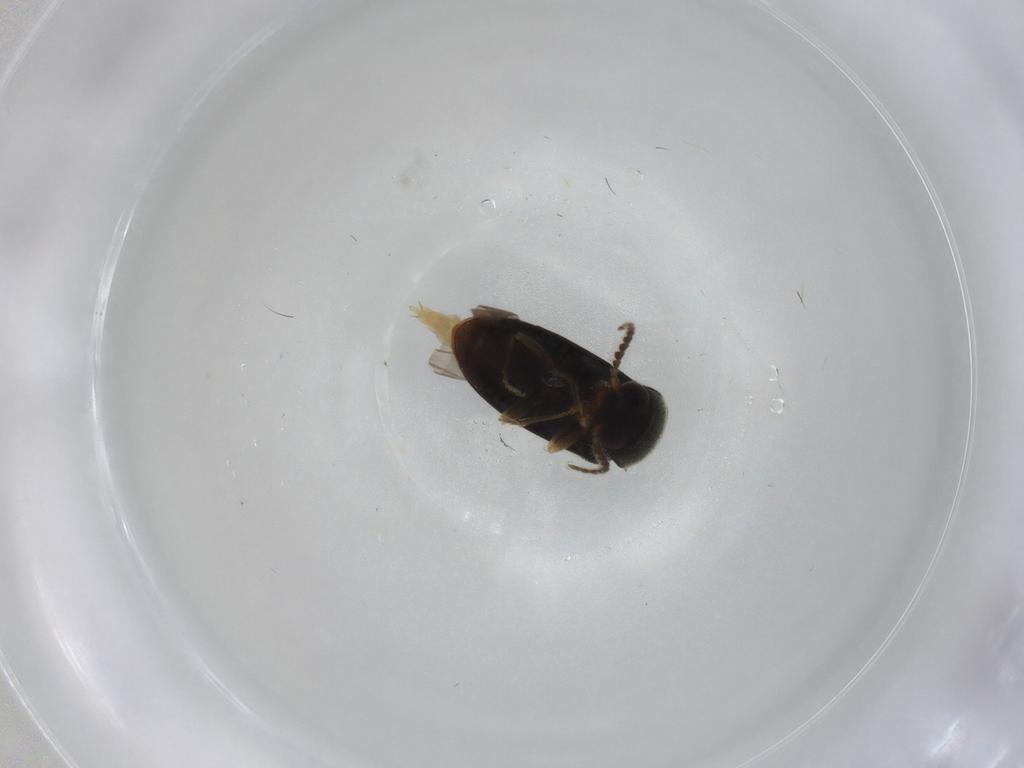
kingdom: Animalia
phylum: Arthropoda
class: Insecta
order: Coleoptera
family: Elateridae
